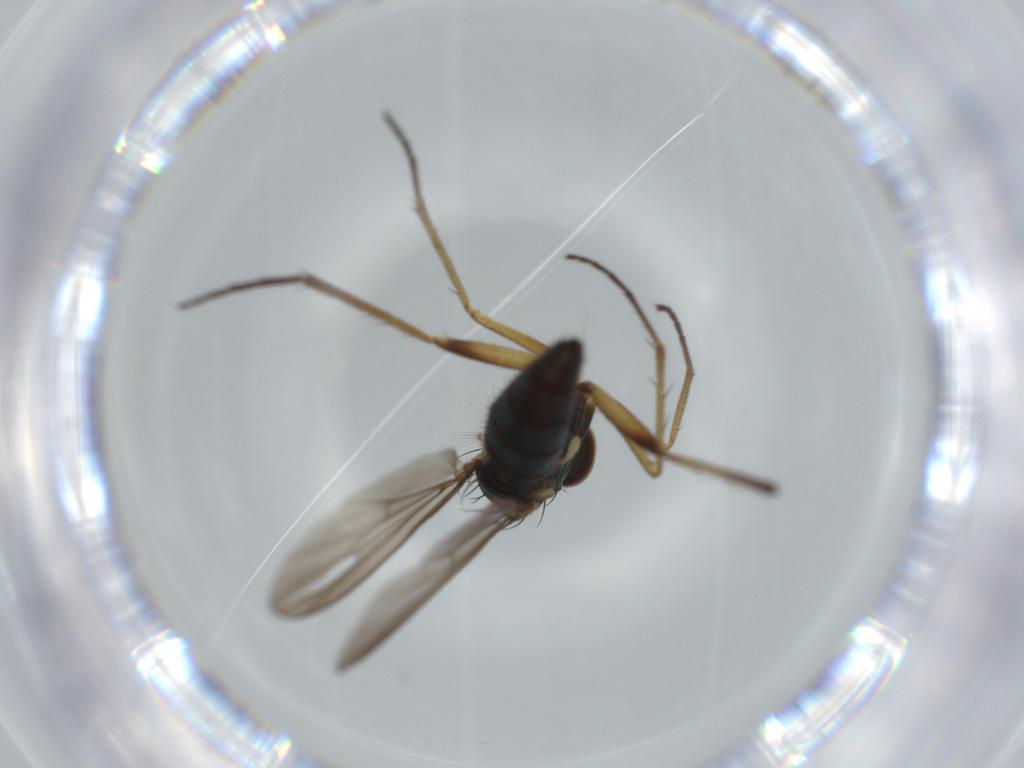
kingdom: Animalia
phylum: Arthropoda
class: Insecta
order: Diptera
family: Dolichopodidae
